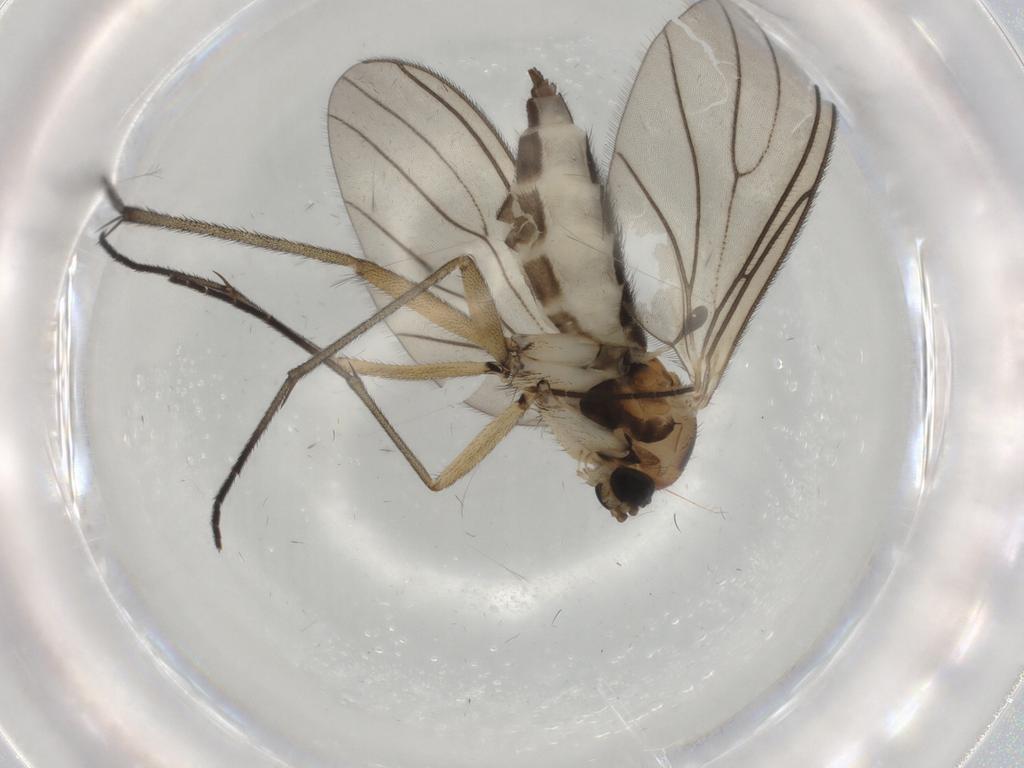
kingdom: Animalia
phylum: Arthropoda
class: Insecta
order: Diptera
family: Sciaridae
